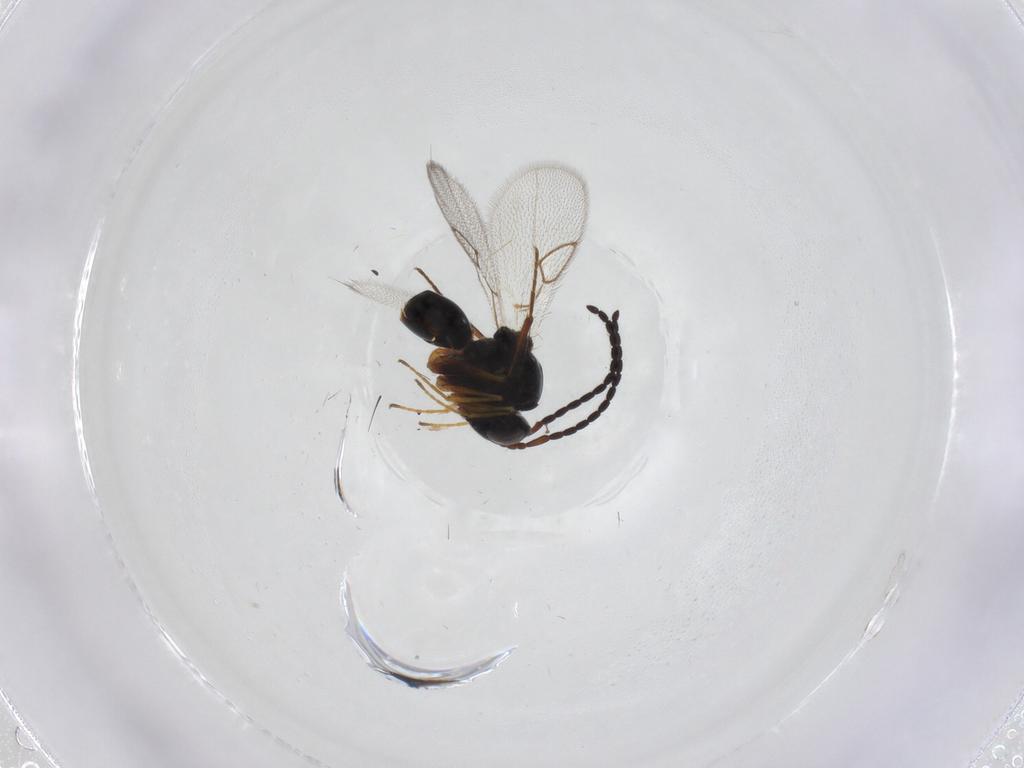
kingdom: Animalia
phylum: Arthropoda
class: Insecta
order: Hymenoptera
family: Figitidae
